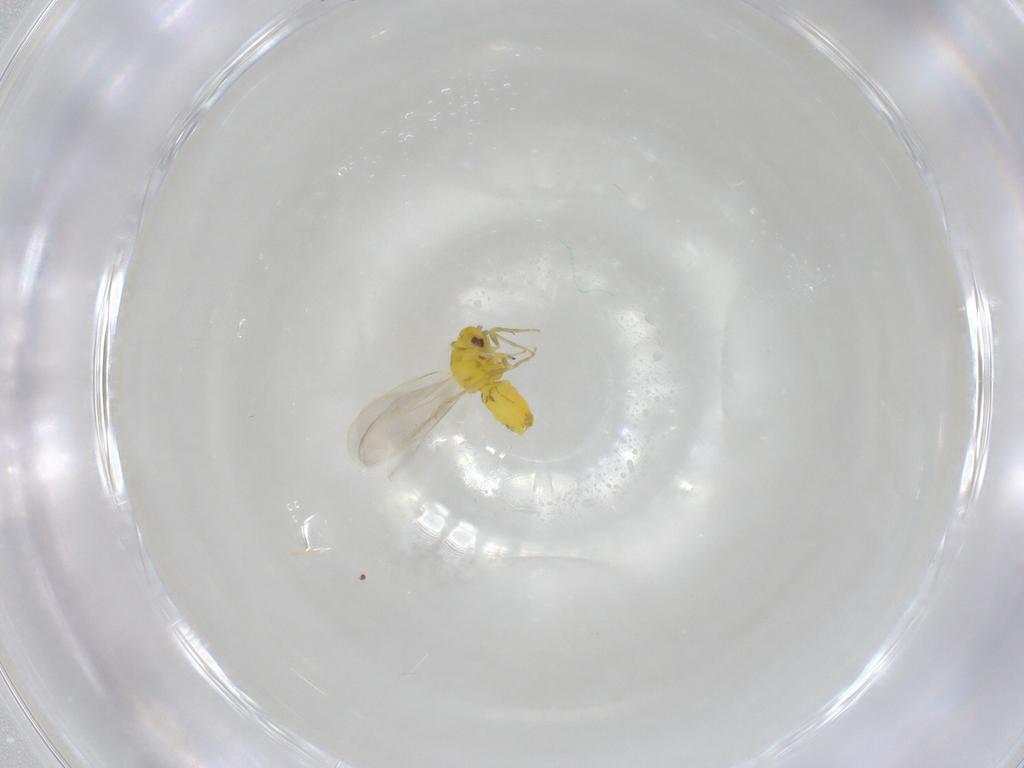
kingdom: Animalia
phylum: Arthropoda
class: Insecta
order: Hemiptera
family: Aleyrodidae
